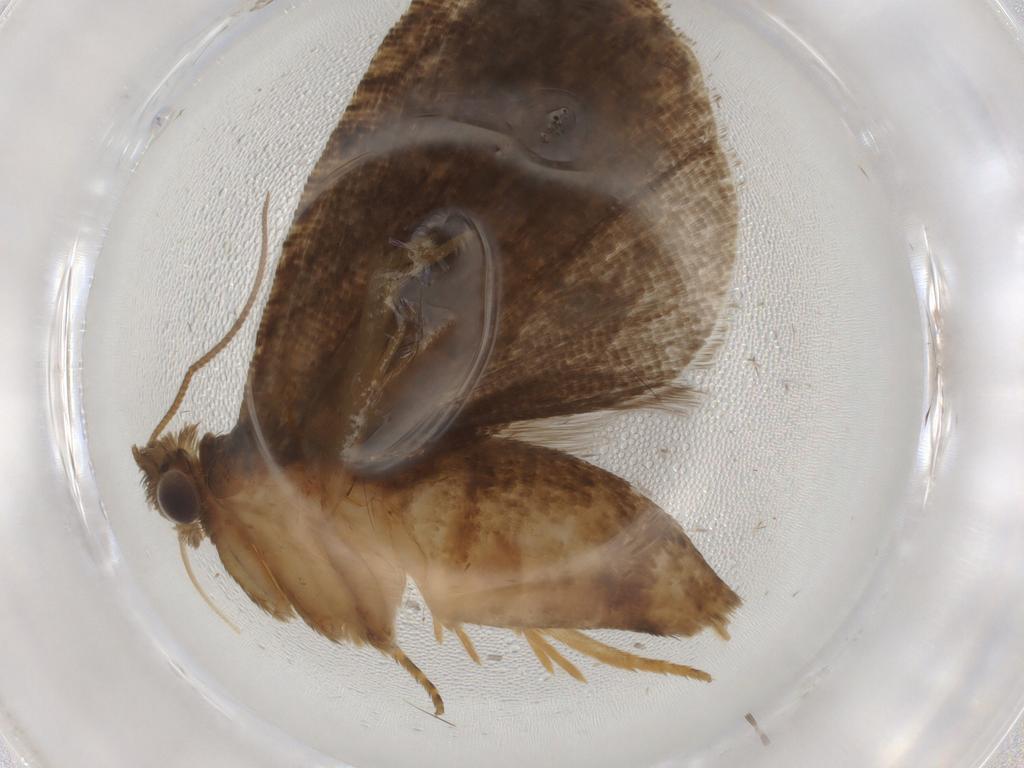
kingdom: Animalia
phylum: Arthropoda
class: Insecta
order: Lepidoptera
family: Tortricidae
